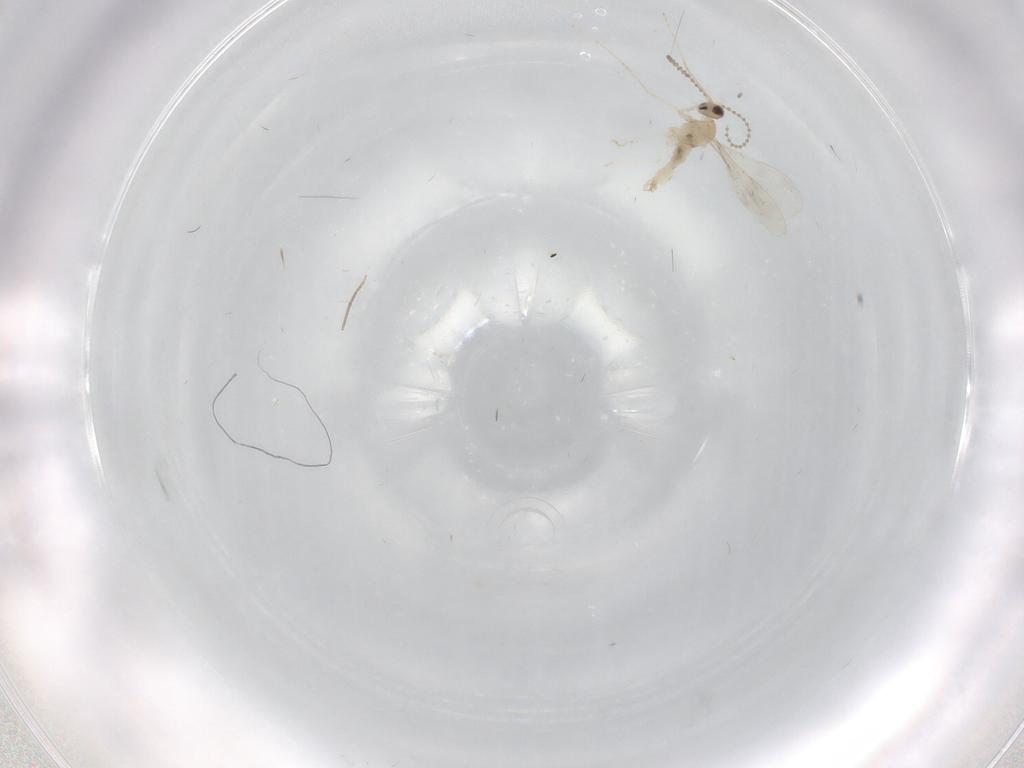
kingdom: Animalia
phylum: Arthropoda
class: Insecta
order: Diptera
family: Cecidomyiidae
